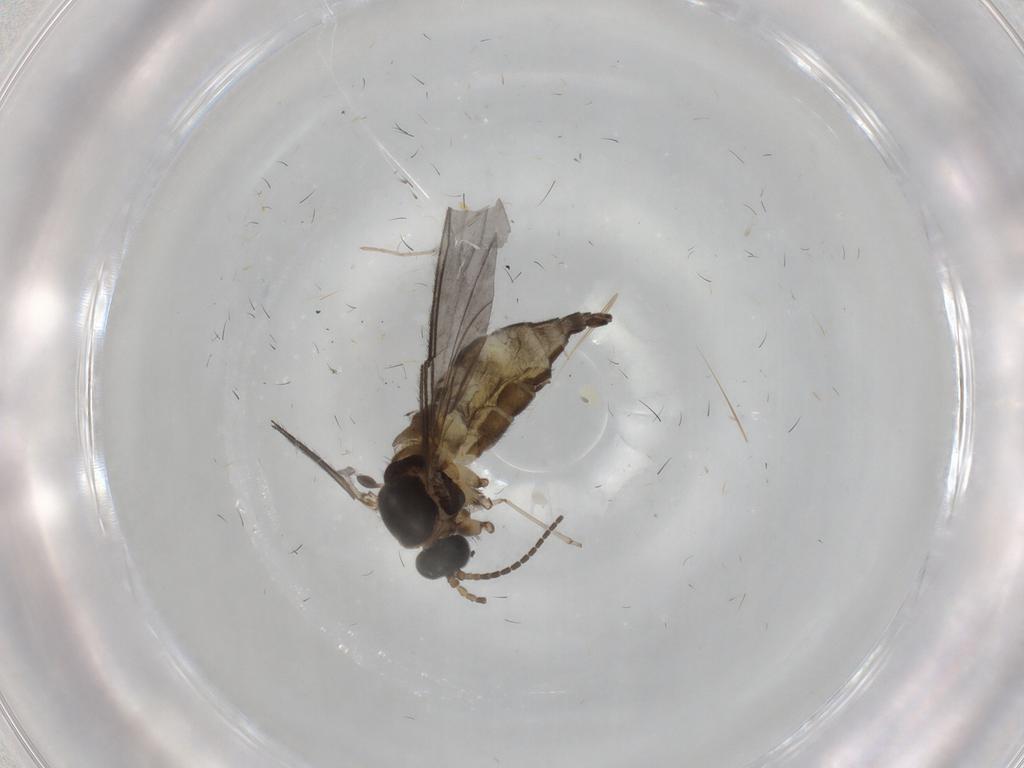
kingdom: Animalia
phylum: Arthropoda
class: Insecta
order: Diptera
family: Sciaridae
